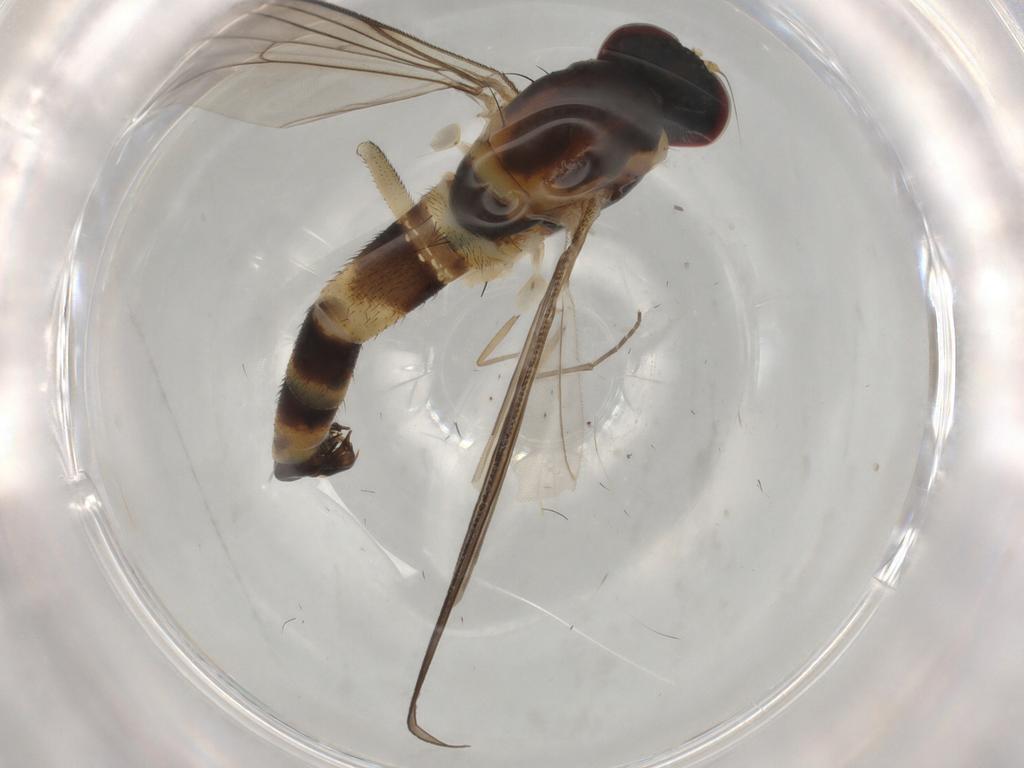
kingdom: Animalia
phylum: Arthropoda
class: Insecta
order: Diptera
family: Sciaridae
